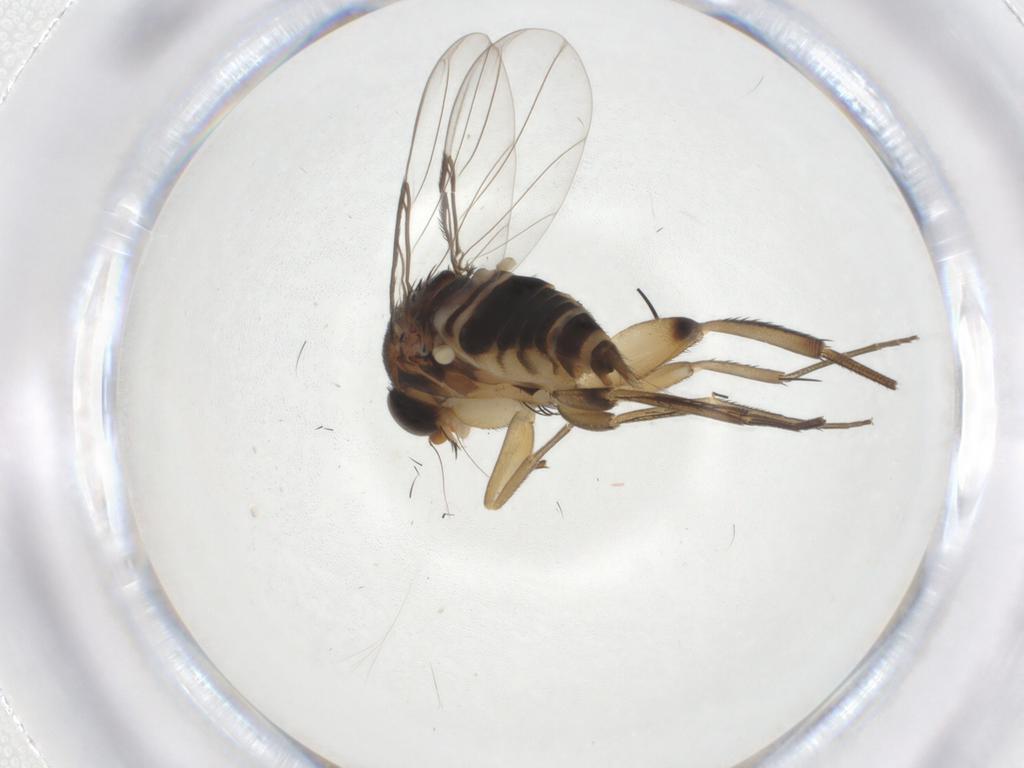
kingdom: Animalia
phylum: Arthropoda
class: Insecta
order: Diptera
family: Phoridae
